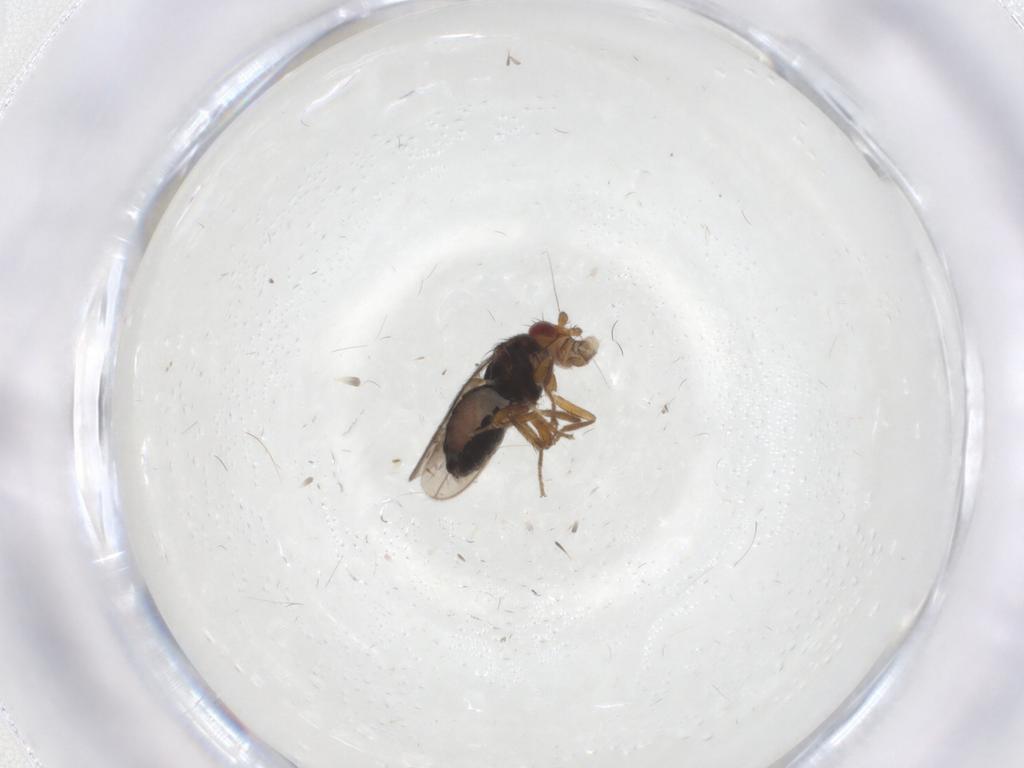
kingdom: Animalia
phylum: Arthropoda
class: Insecta
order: Diptera
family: Sphaeroceridae
